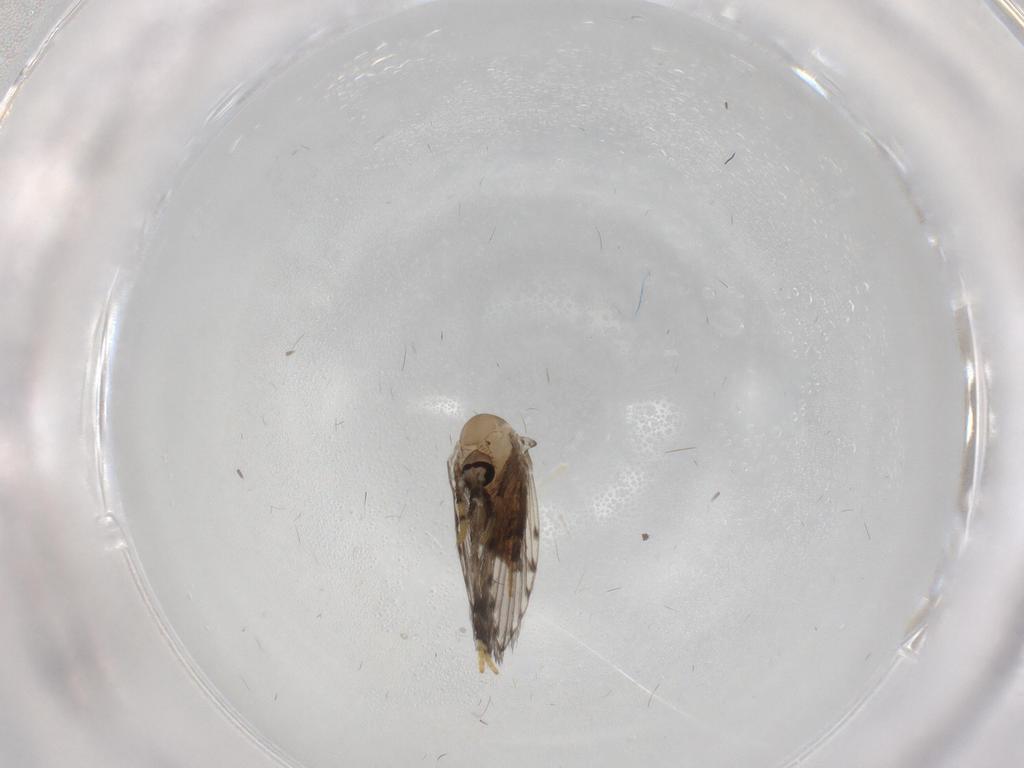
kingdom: Animalia
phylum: Arthropoda
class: Insecta
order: Diptera
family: Psychodidae
